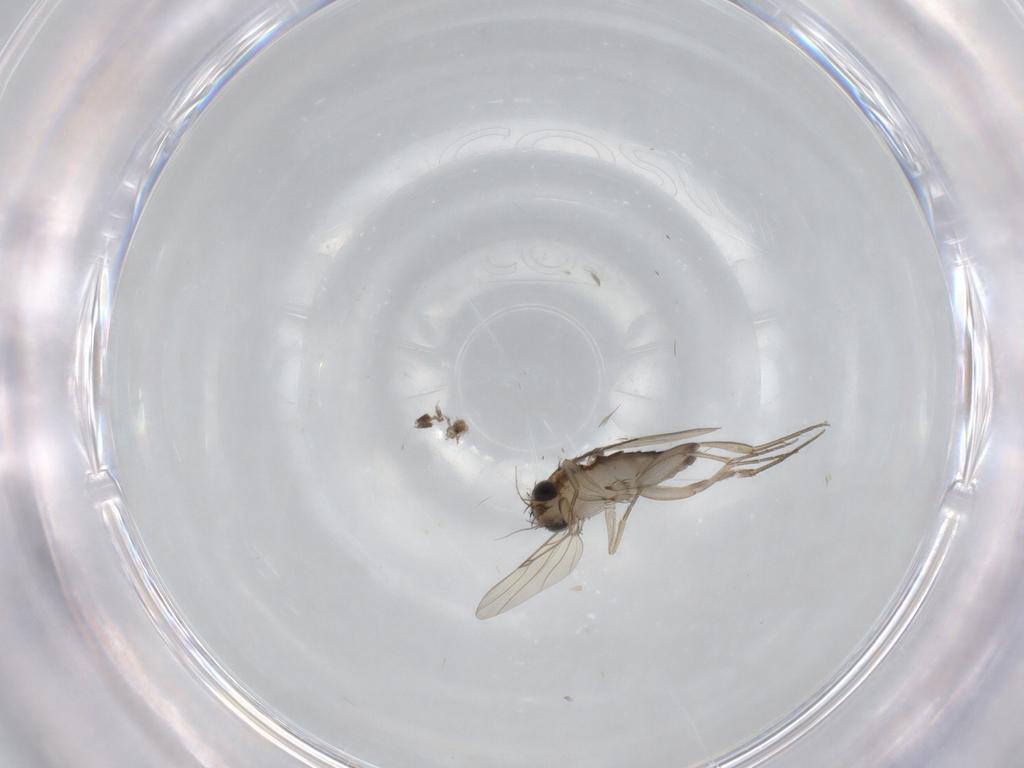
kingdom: Animalia
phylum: Arthropoda
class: Insecta
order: Diptera
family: Phoridae
